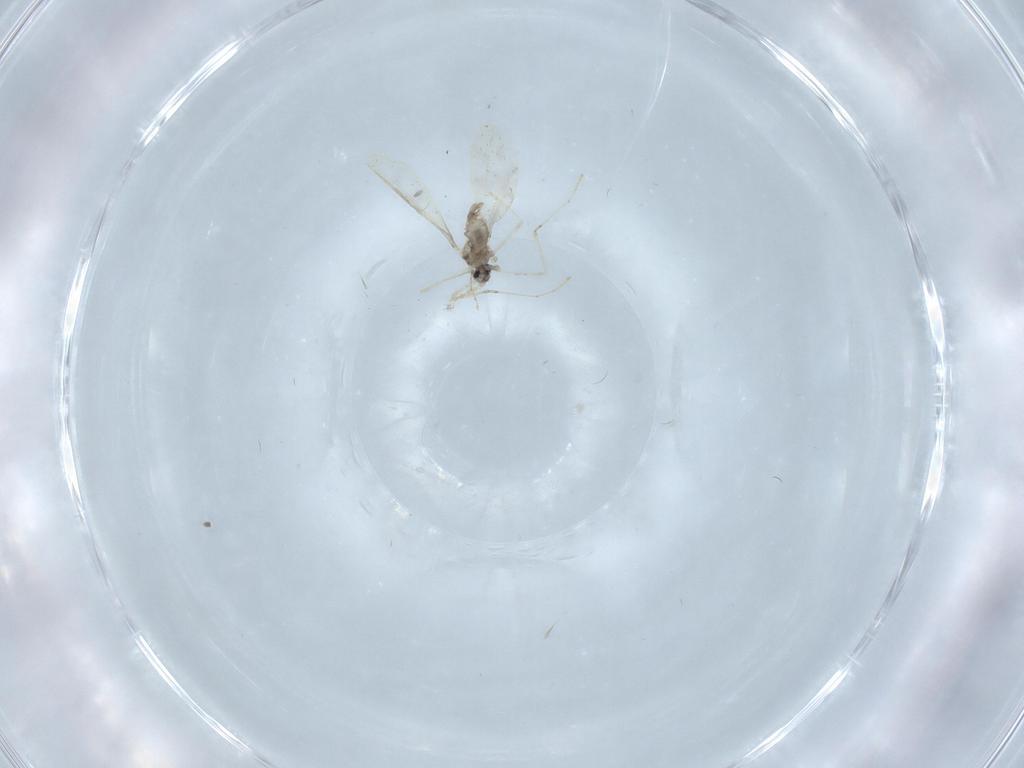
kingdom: Animalia
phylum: Arthropoda
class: Insecta
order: Diptera
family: Cecidomyiidae
